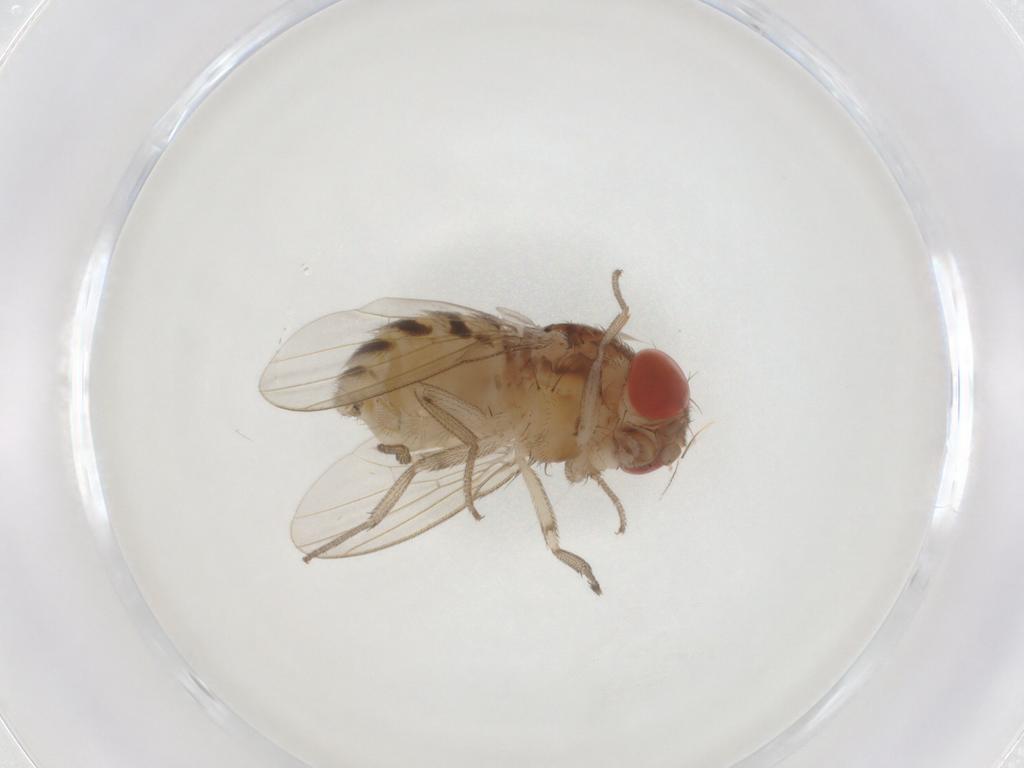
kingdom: Animalia
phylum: Arthropoda
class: Insecta
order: Diptera
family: Drosophilidae
